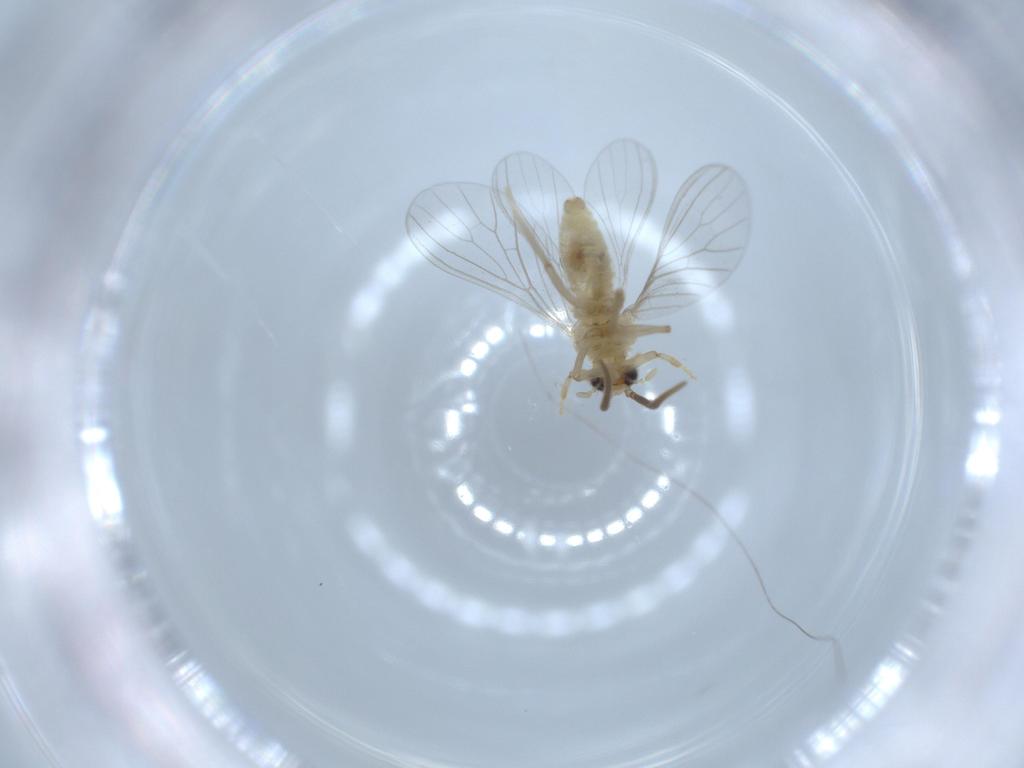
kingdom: Animalia
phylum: Arthropoda
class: Insecta
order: Neuroptera
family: Coniopterygidae
